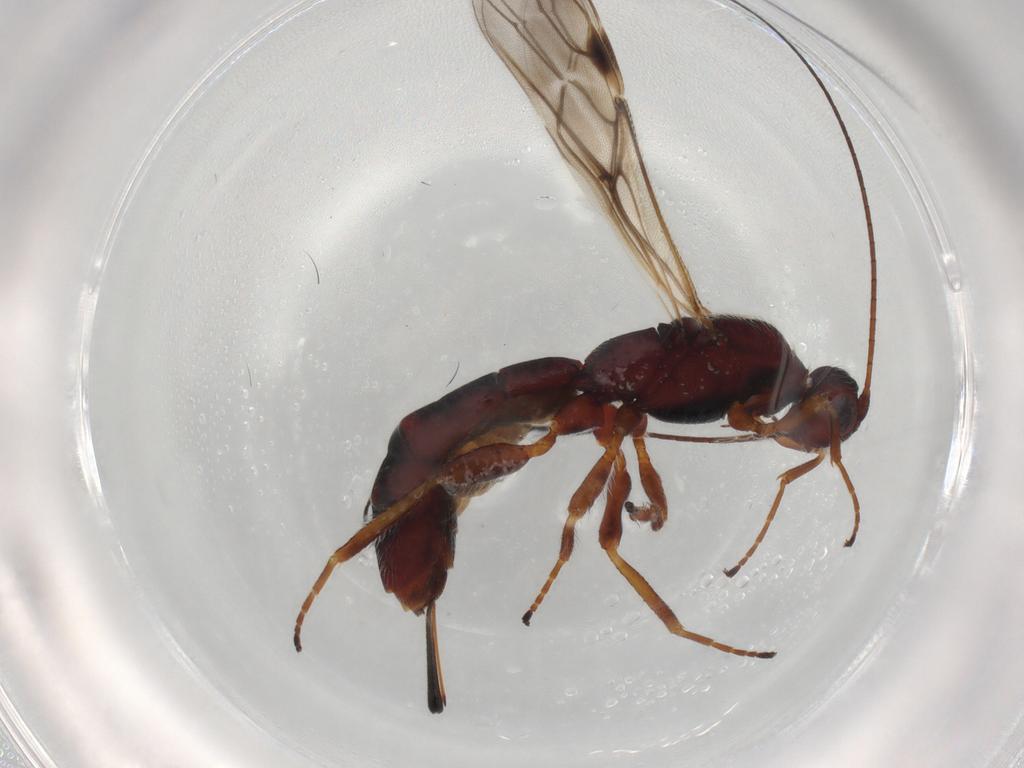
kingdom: Animalia
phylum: Arthropoda
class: Insecta
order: Hymenoptera
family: Braconidae
